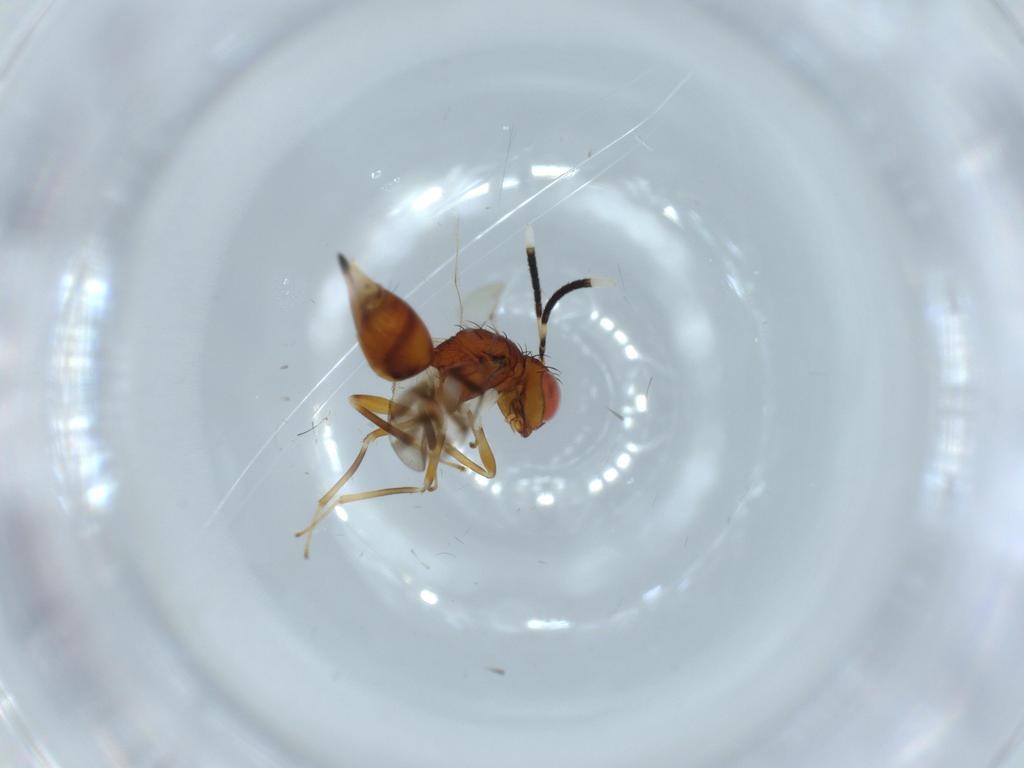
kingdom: Animalia
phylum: Arthropoda
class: Insecta
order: Hymenoptera
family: Diparidae
